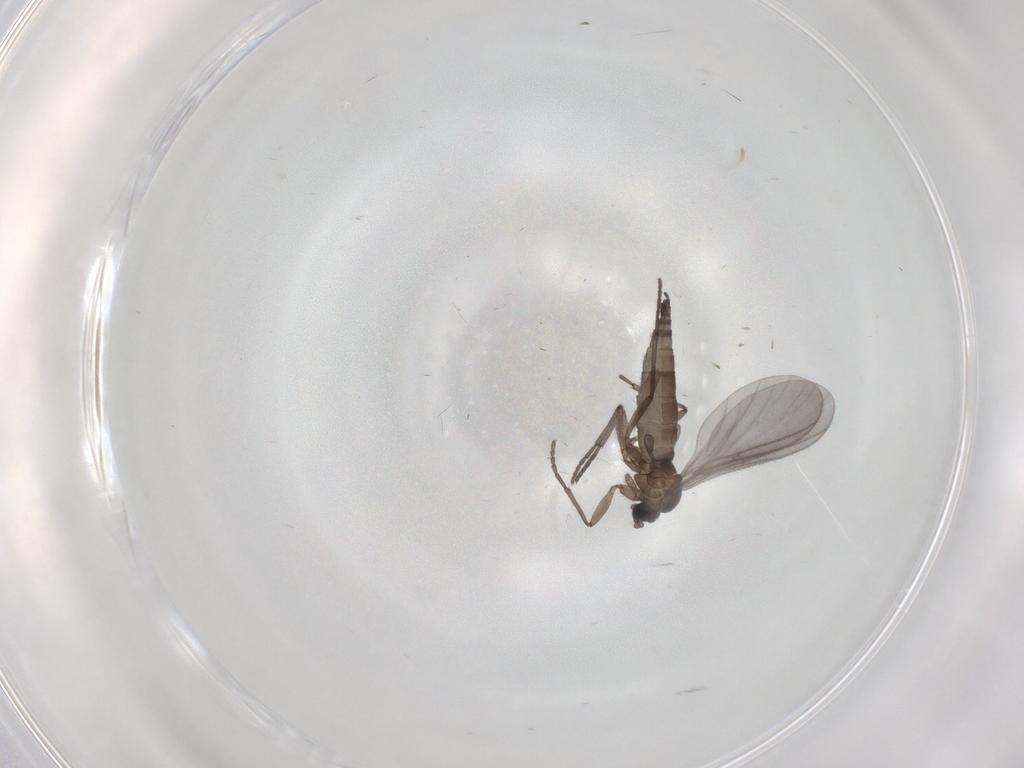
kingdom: Animalia
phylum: Arthropoda
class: Insecta
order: Diptera
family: Sciaridae
